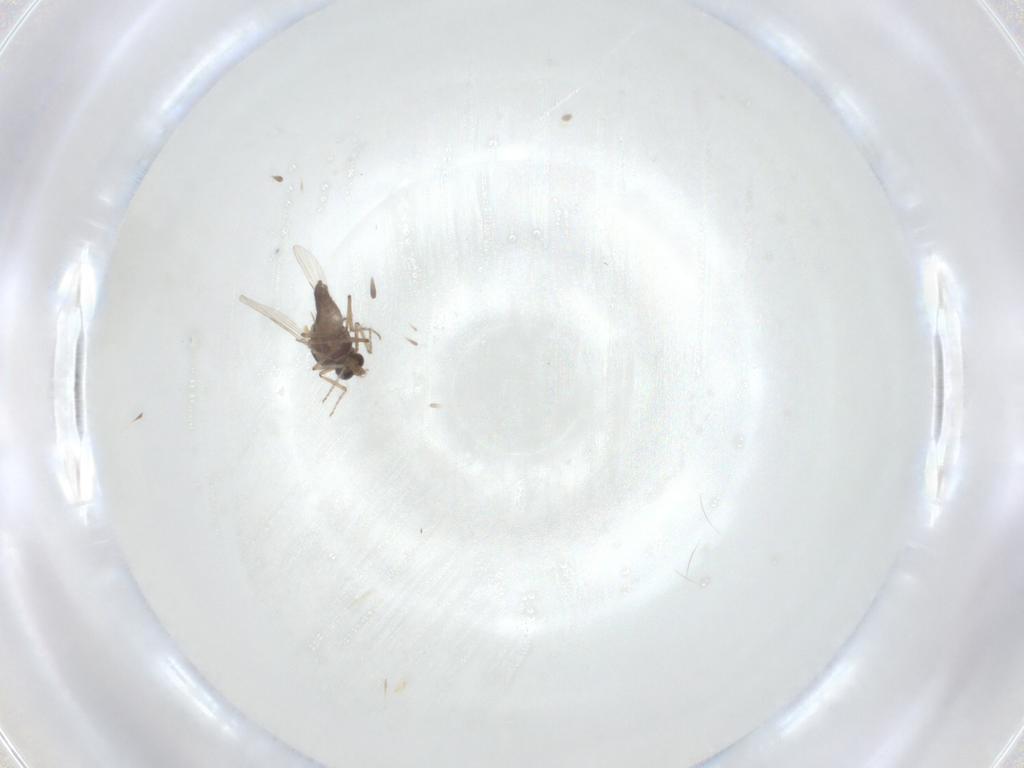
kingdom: Animalia
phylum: Arthropoda
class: Insecta
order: Diptera
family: Ceratopogonidae
